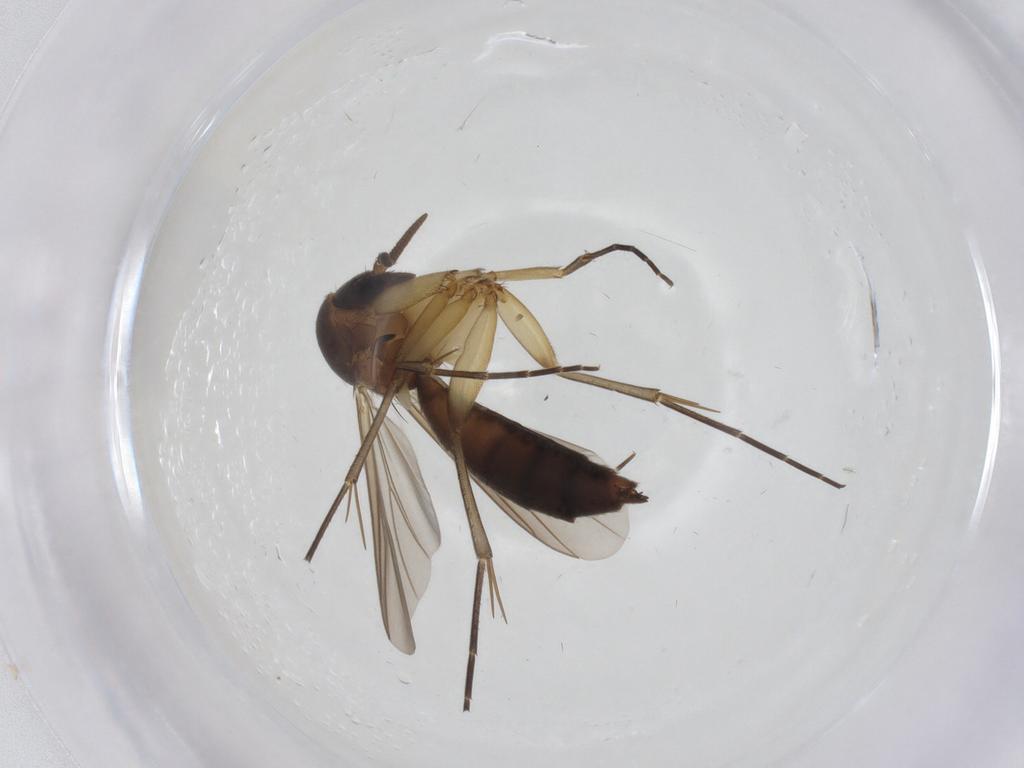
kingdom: Animalia
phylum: Arthropoda
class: Insecta
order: Diptera
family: Mycetophilidae
